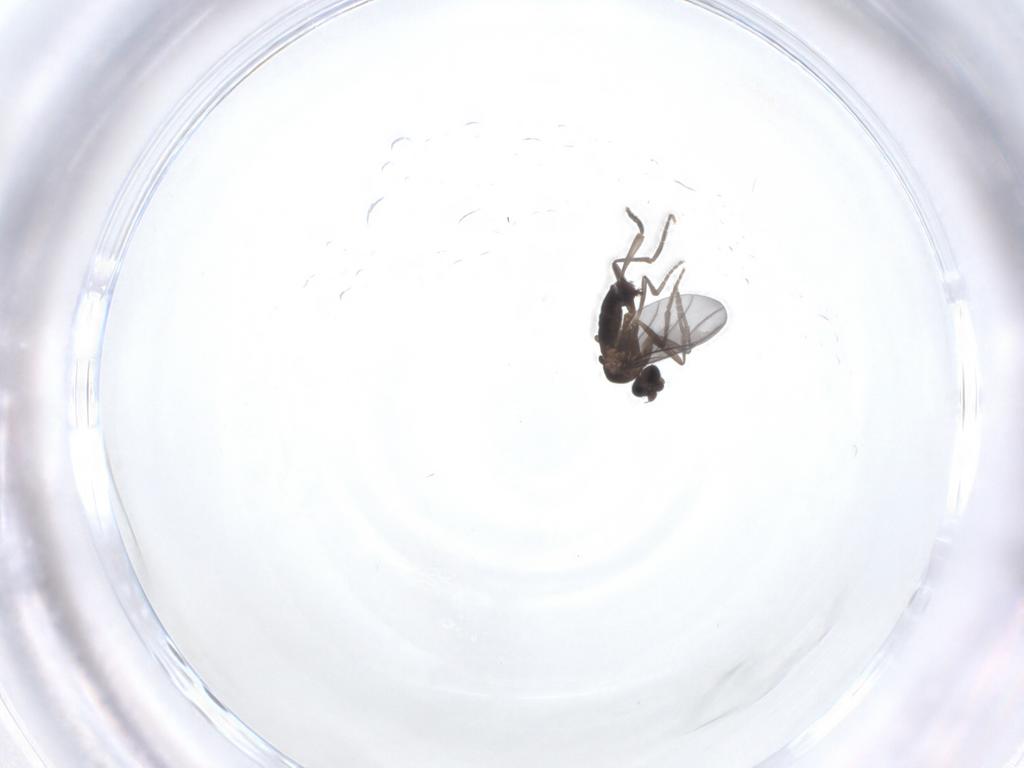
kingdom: Animalia
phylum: Arthropoda
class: Insecta
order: Diptera
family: Phoridae
